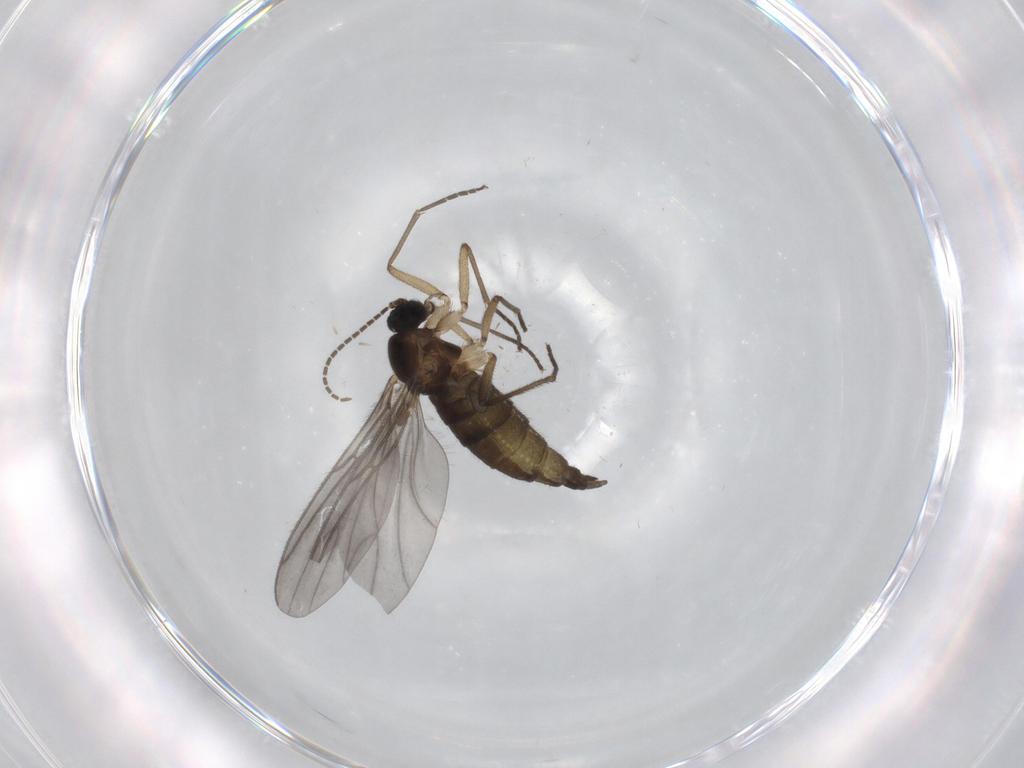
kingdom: Animalia
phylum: Arthropoda
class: Insecta
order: Diptera
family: Sciaridae
